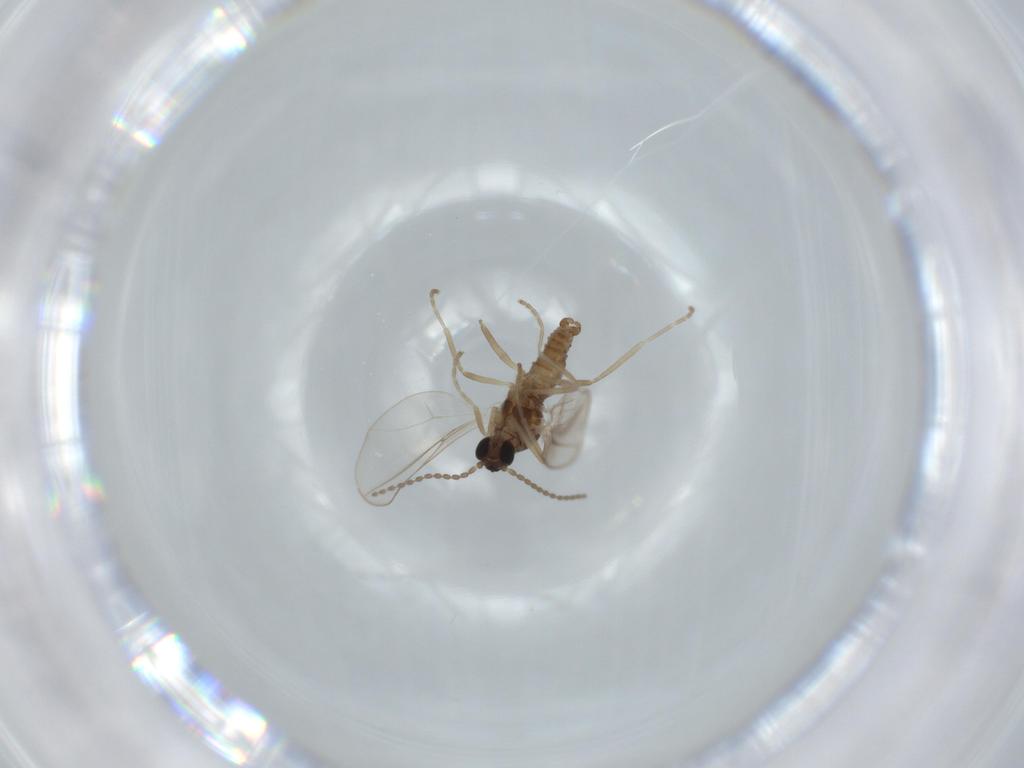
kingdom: Animalia
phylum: Arthropoda
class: Insecta
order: Diptera
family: Cecidomyiidae
